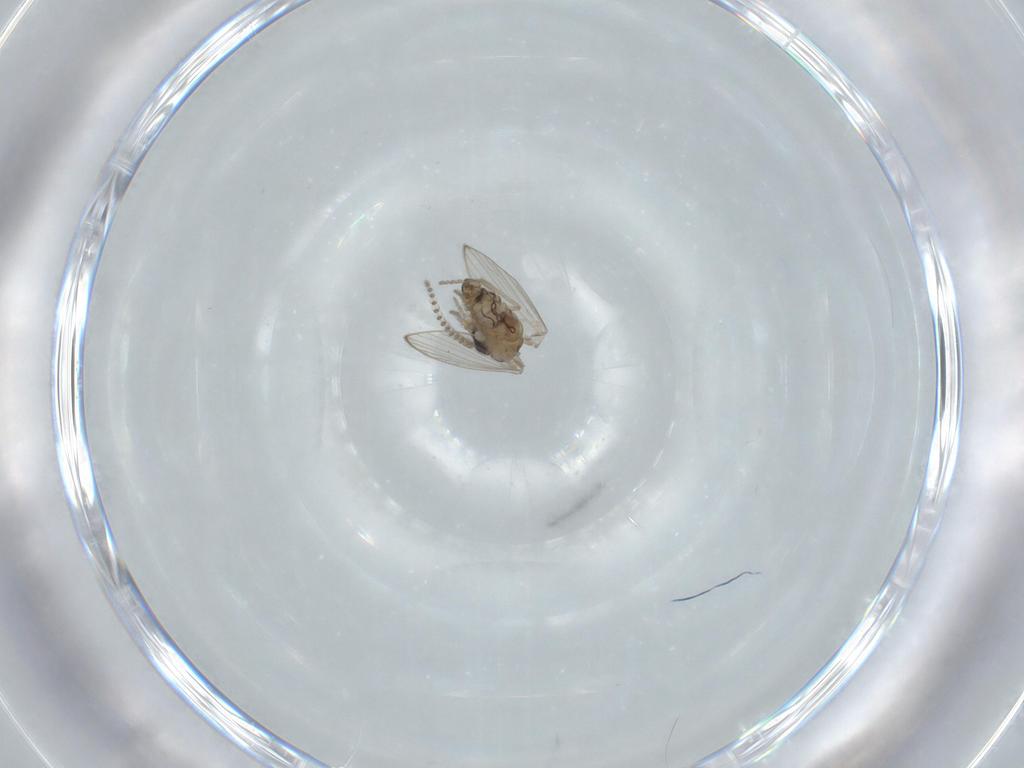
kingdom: Animalia
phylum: Arthropoda
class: Insecta
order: Diptera
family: Psychodidae
